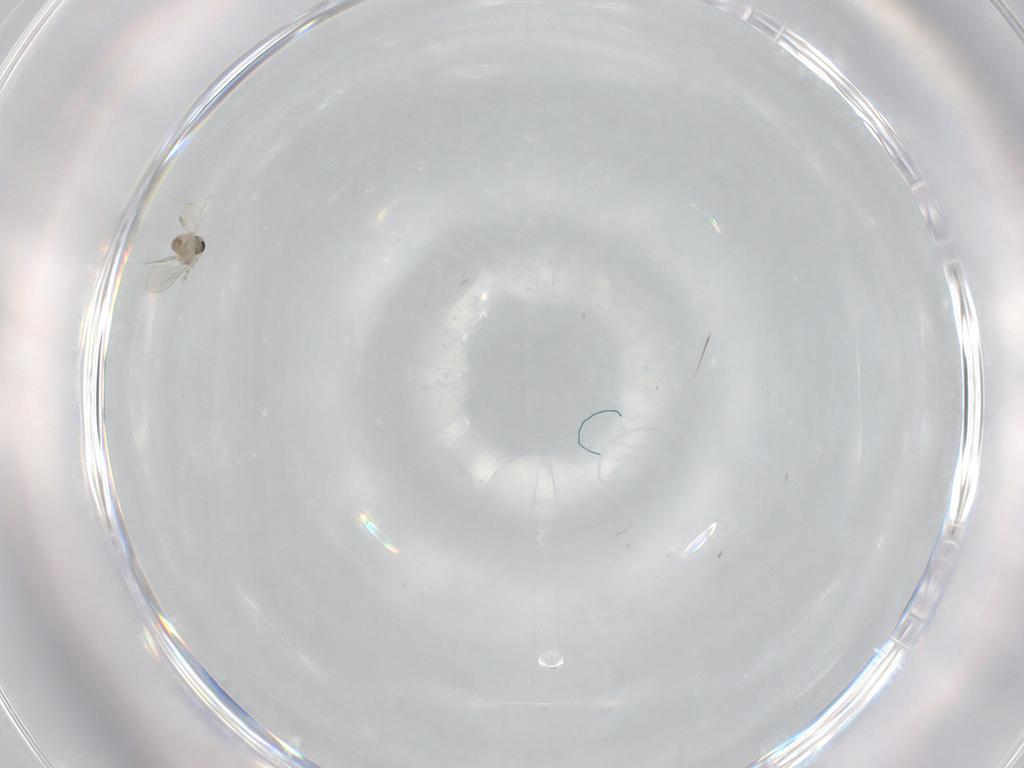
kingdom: Animalia
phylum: Arthropoda
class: Insecta
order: Diptera
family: Cecidomyiidae
